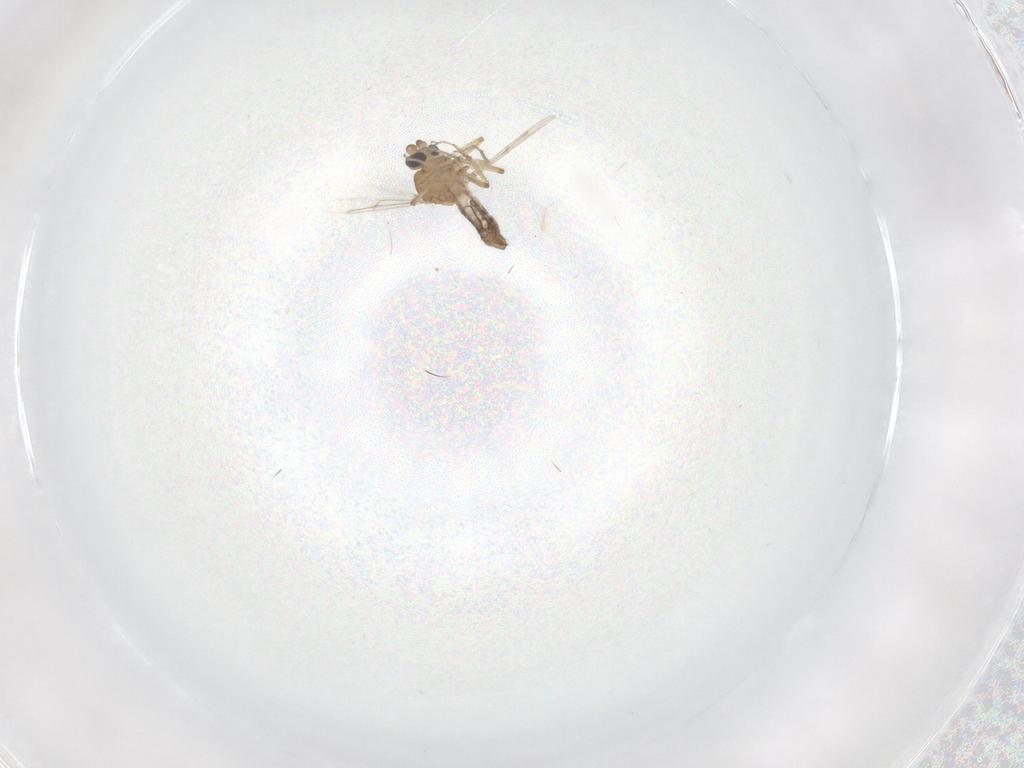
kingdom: Animalia
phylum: Arthropoda
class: Insecta
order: Diptera
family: Ceratopogonidae
